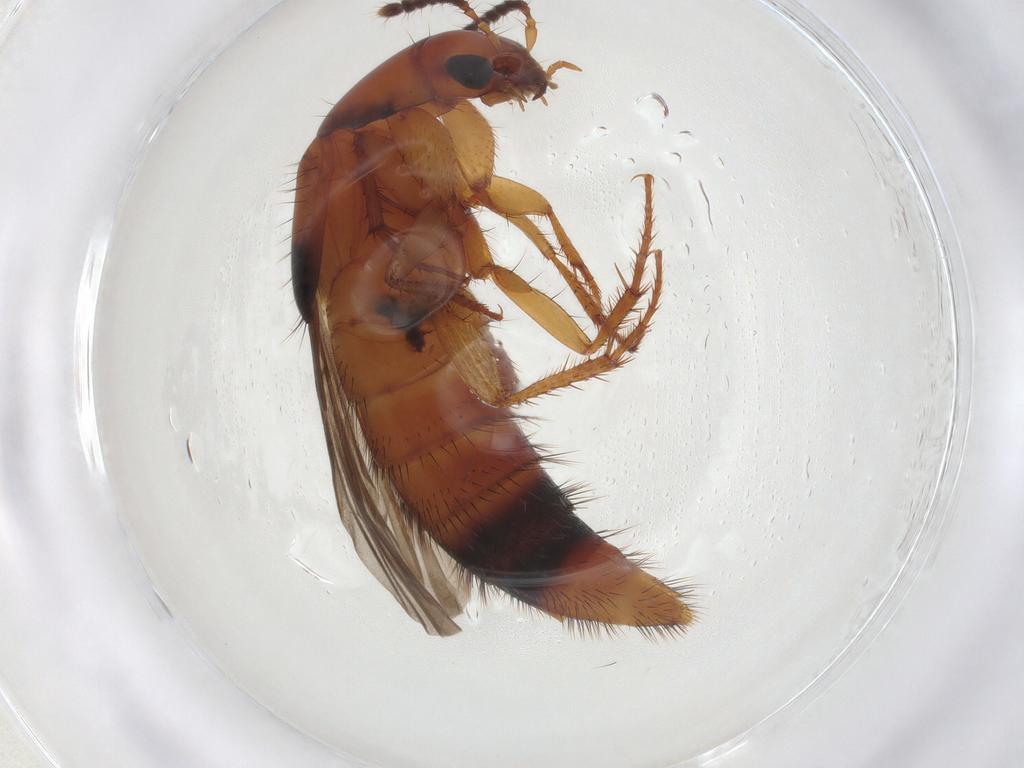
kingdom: Animalia
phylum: Arthropoda
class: Insecta
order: Coleoptera
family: Staphylinidae
